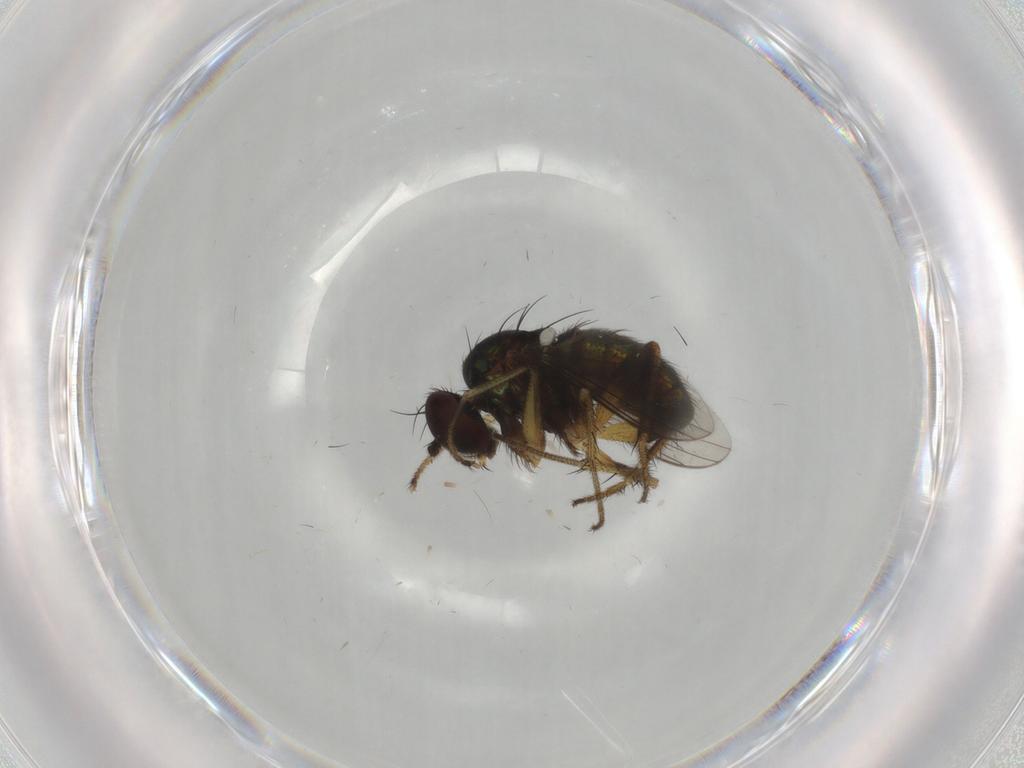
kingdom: Animalia
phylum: Arthropoda
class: Insecta
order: Diptera
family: Dolichopodidae
